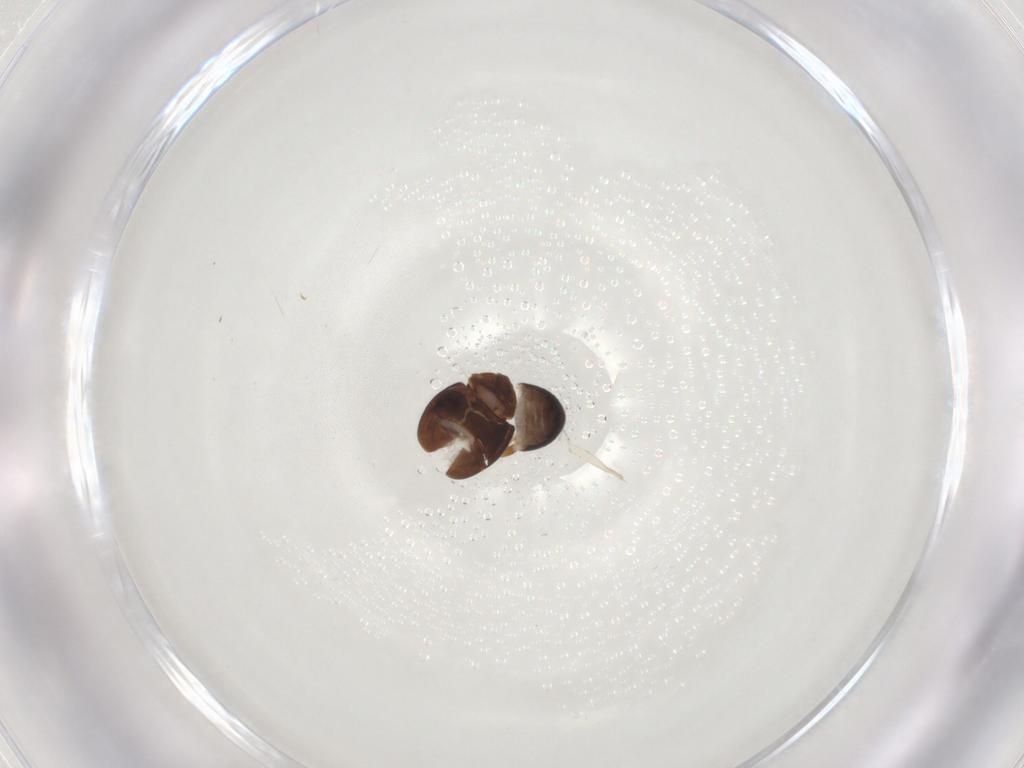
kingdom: Animalia
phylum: Arthropoda
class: Insecta
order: Coleoptera
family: Corylophidae
